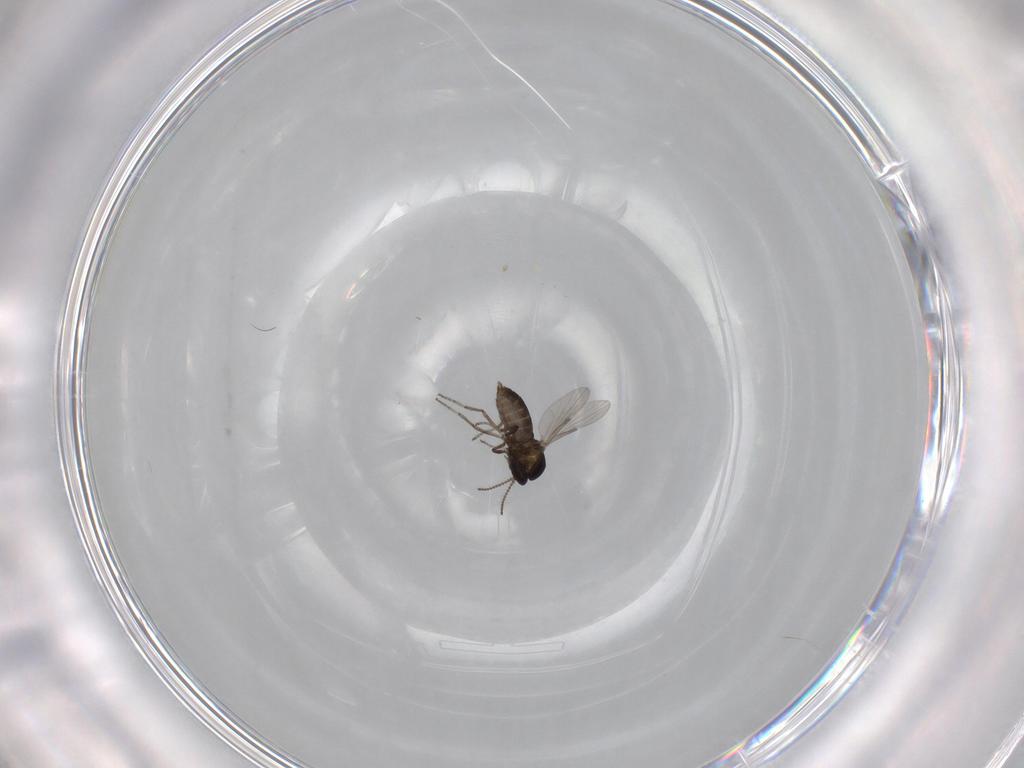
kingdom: Animalia
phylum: Arthropoda
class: Insecta
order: Diptera
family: Ceratopogonidae
